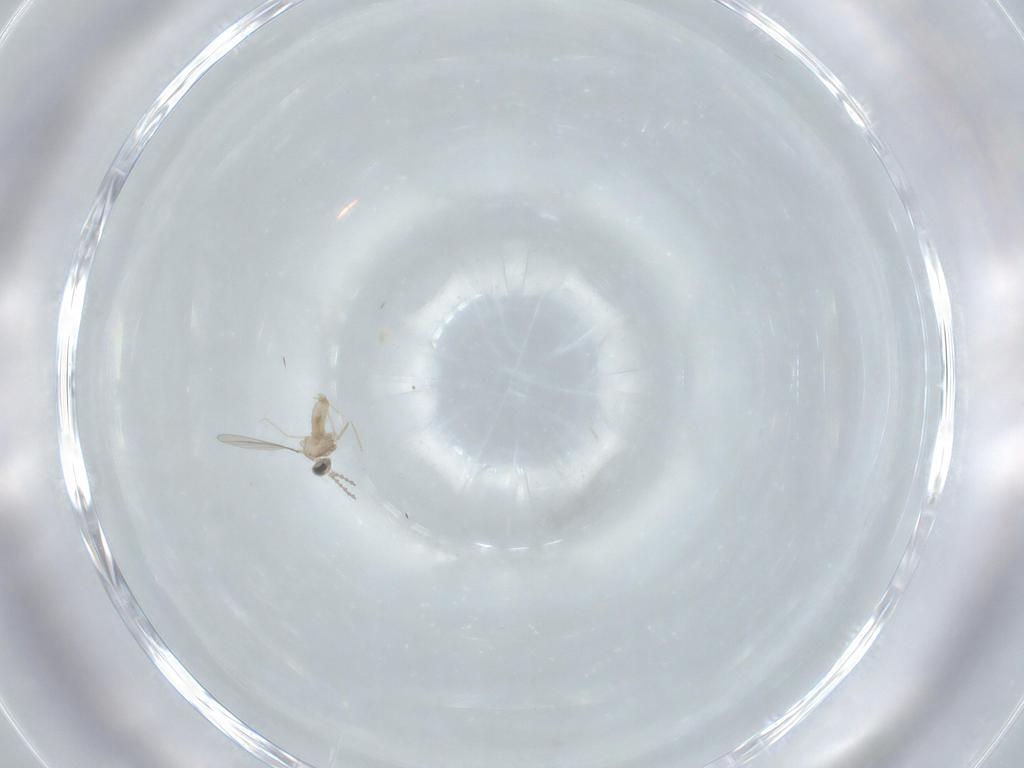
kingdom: Animalia
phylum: Arthropoda
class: Insecta
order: Diptera
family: Cecidomyiidae
